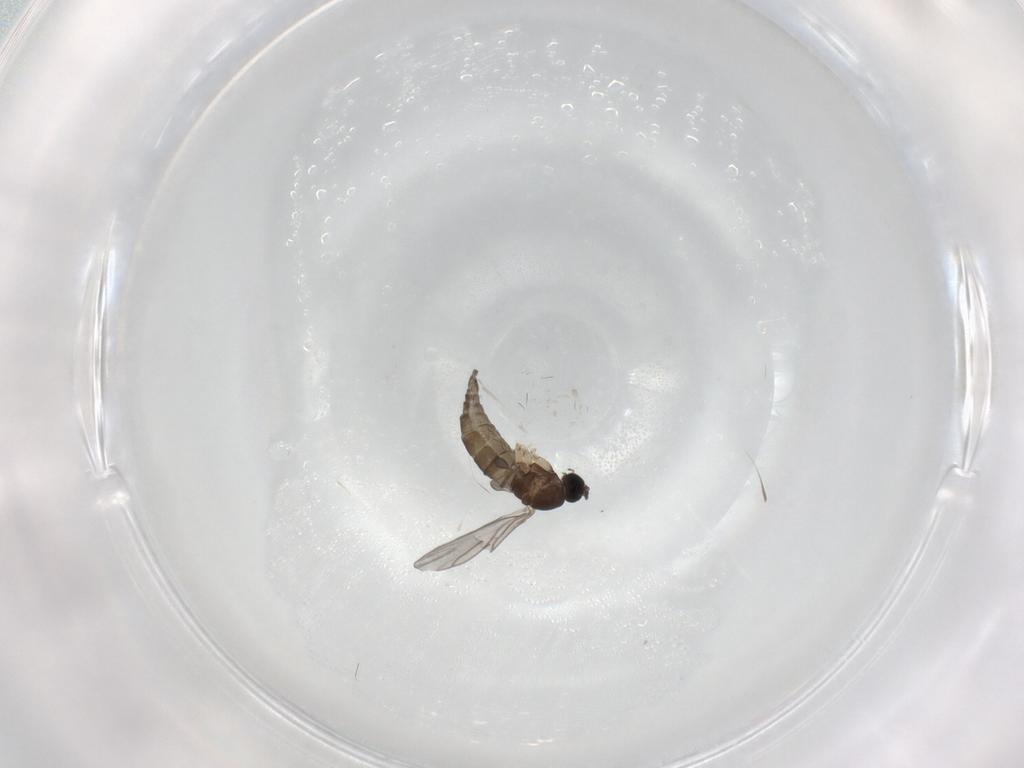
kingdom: Animalia
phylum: Arthropoda
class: Insecta
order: Diptera
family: Sciaridae
